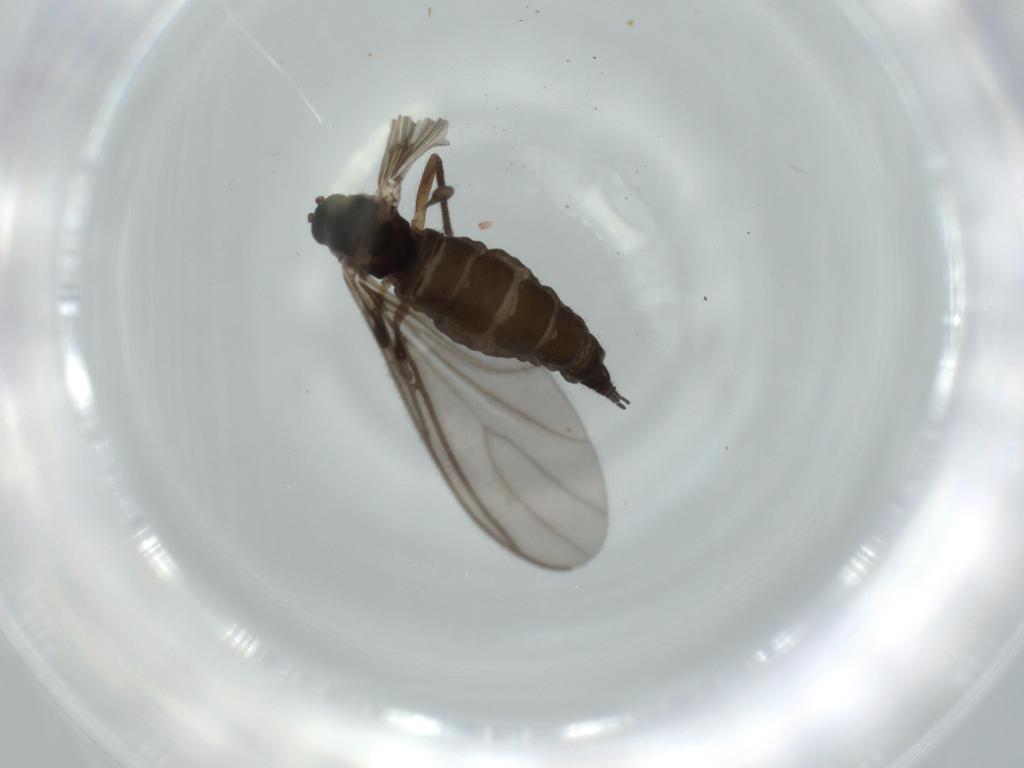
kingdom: Animalia
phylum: Arthropoda
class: Insecta
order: Diptera
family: Sciaridae
